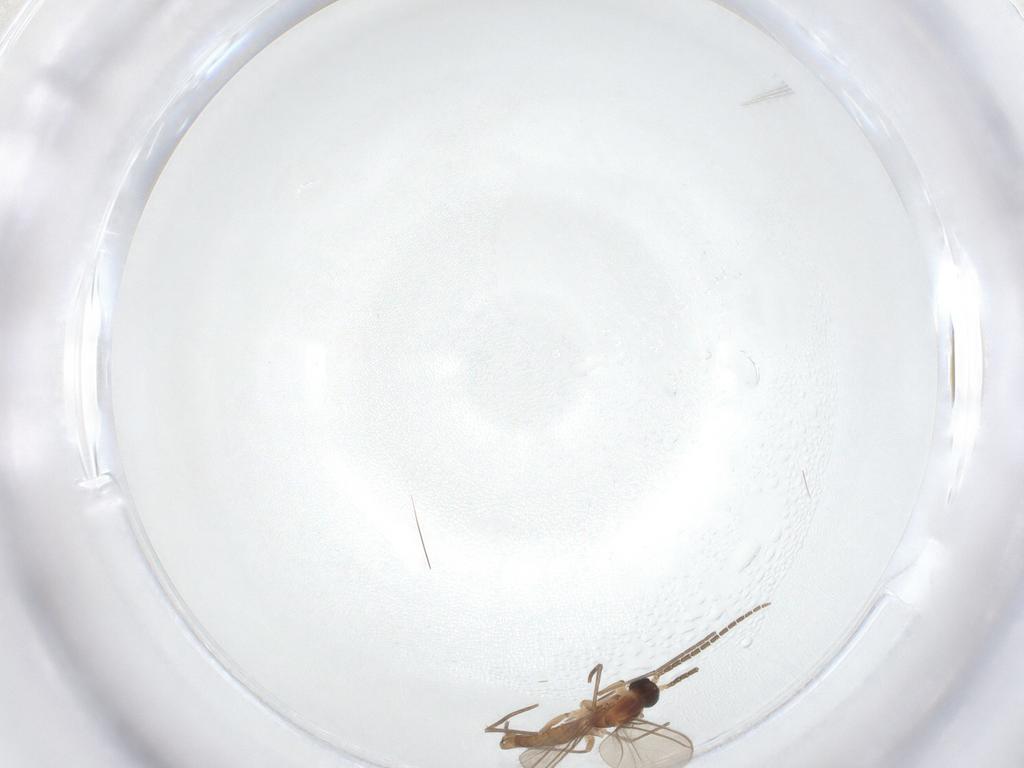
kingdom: Animalia
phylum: Arthropoda
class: Insecta
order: Diptera
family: Sciaridae
